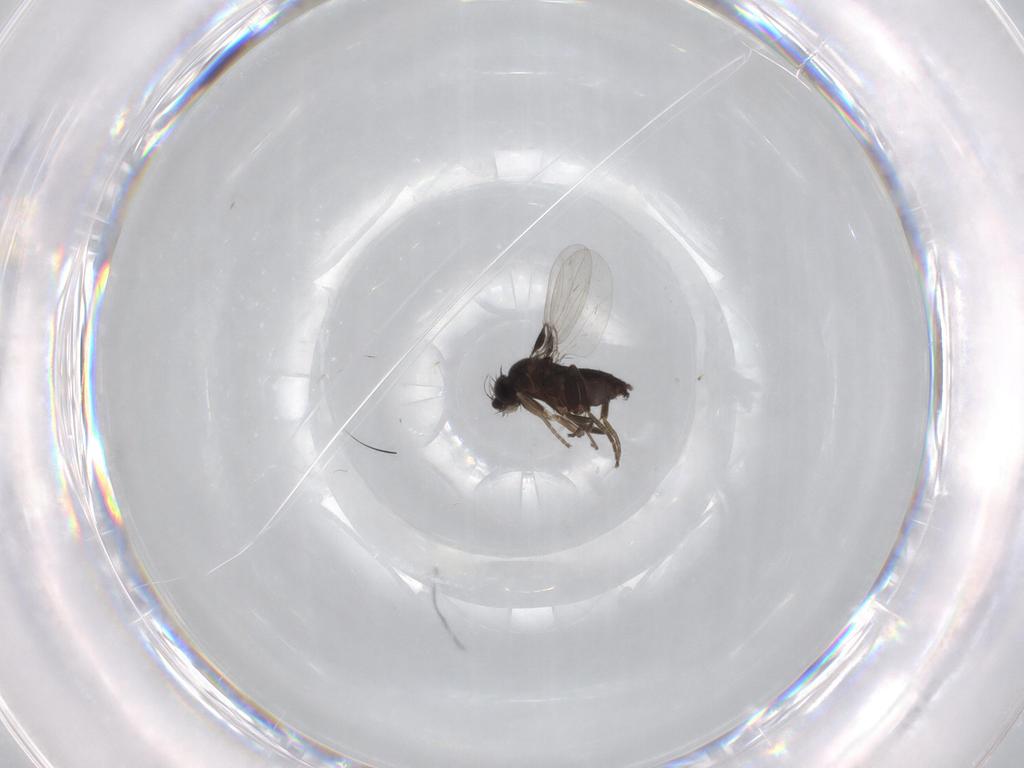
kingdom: Animalia
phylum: Arthropoda
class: Insecta
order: Diptera
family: Phoridae
